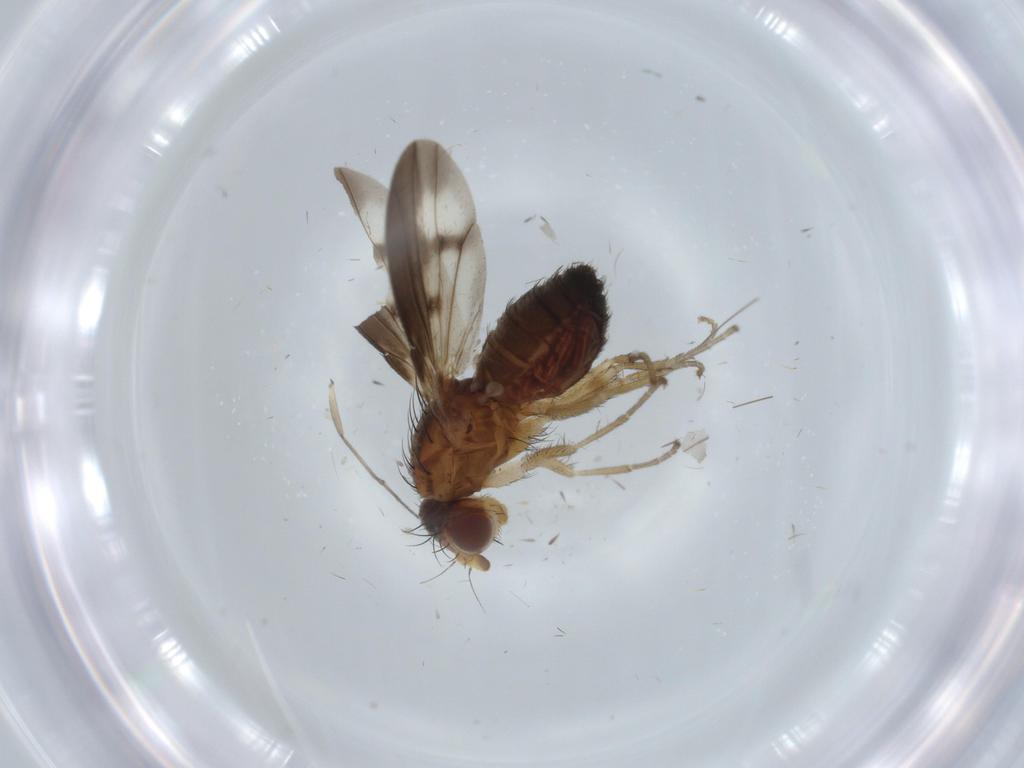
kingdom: Animalia
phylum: Arthropoda
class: Insecta
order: Diptera
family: Heleomyzidae
